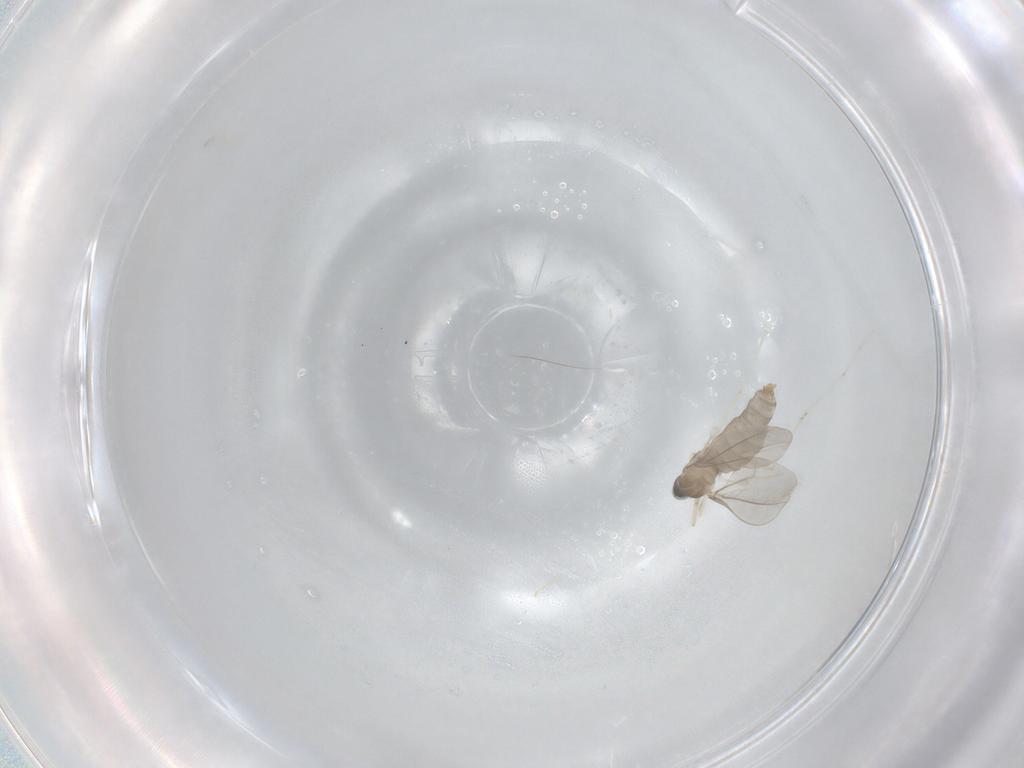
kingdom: Animalia
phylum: Arthropoda
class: Insecta
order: Diptera
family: Cecidomyiidae
